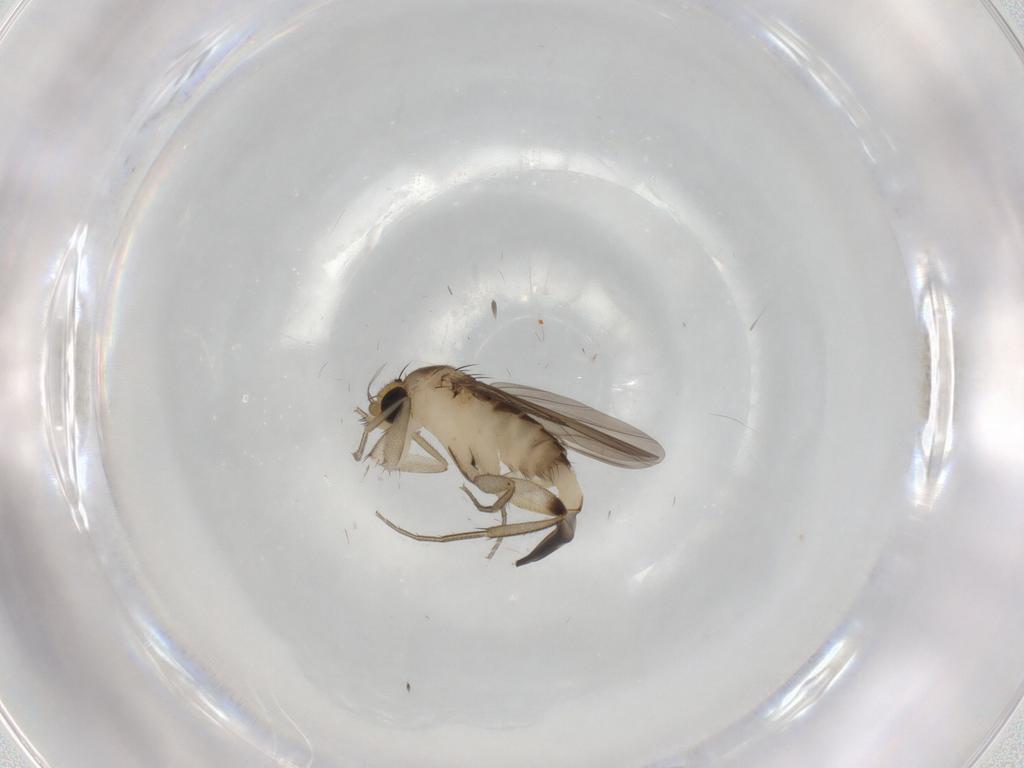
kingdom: Animalia
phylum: Arthropoda
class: Insecta
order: Diptera
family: Phoridae
